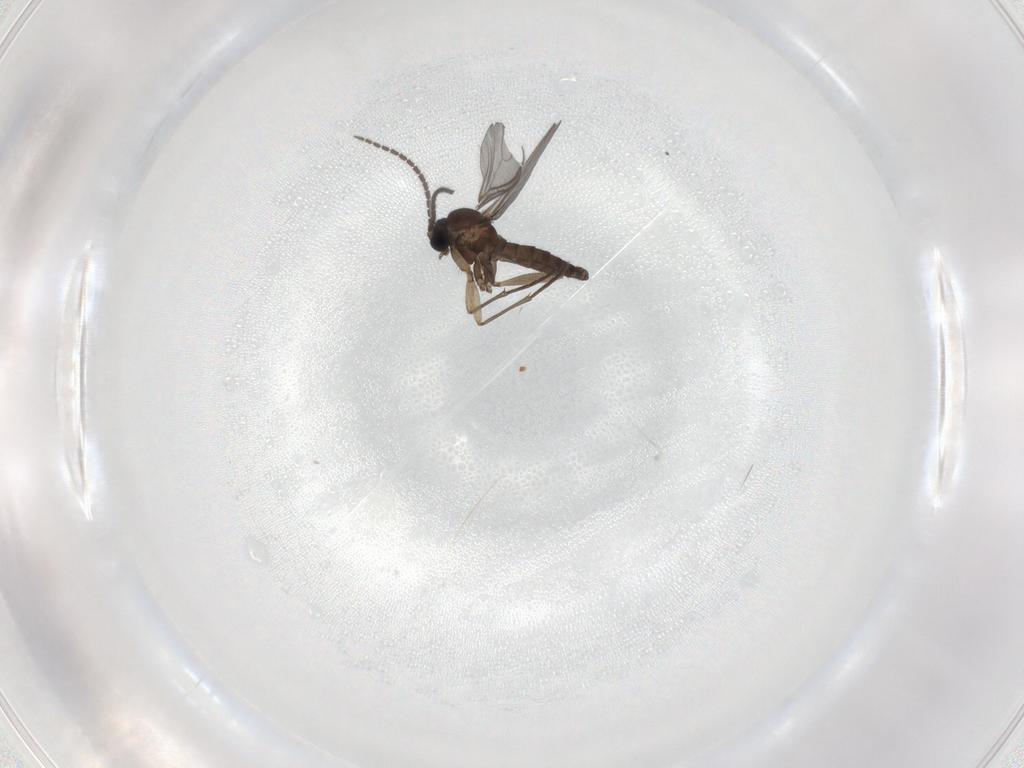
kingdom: Animalia
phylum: Arthropoda
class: Insecta
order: Diptera
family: Sciaridae
